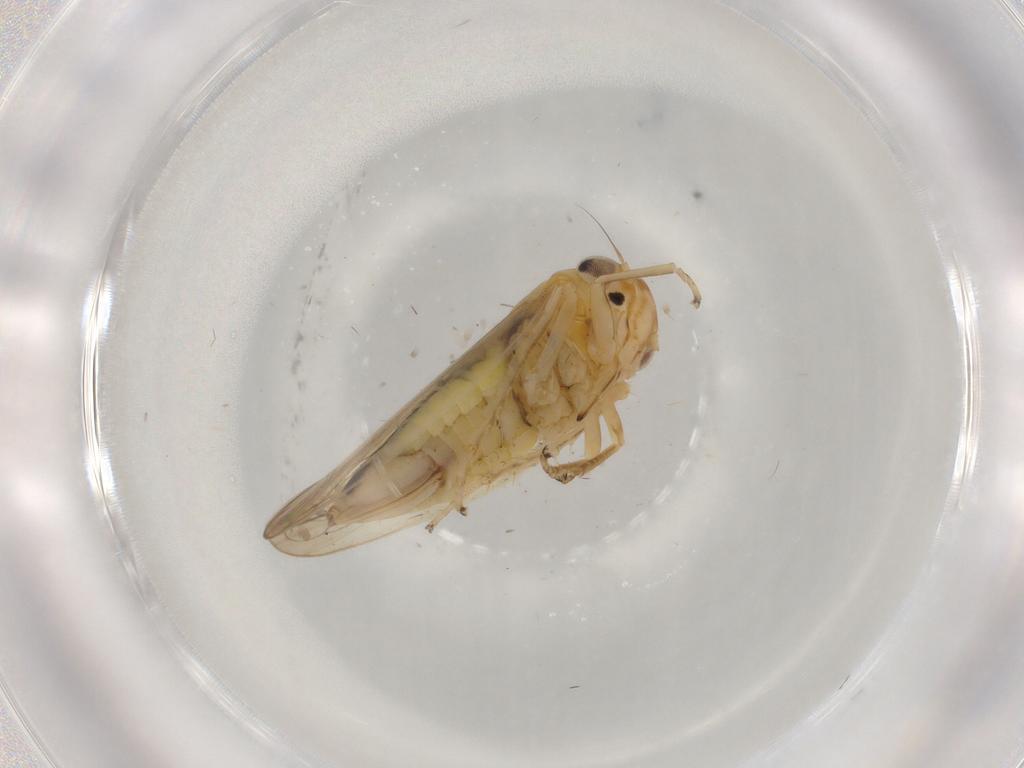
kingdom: Animalia
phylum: Arthropoda
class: Insecta
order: Hemiptera
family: Cicadellidae
